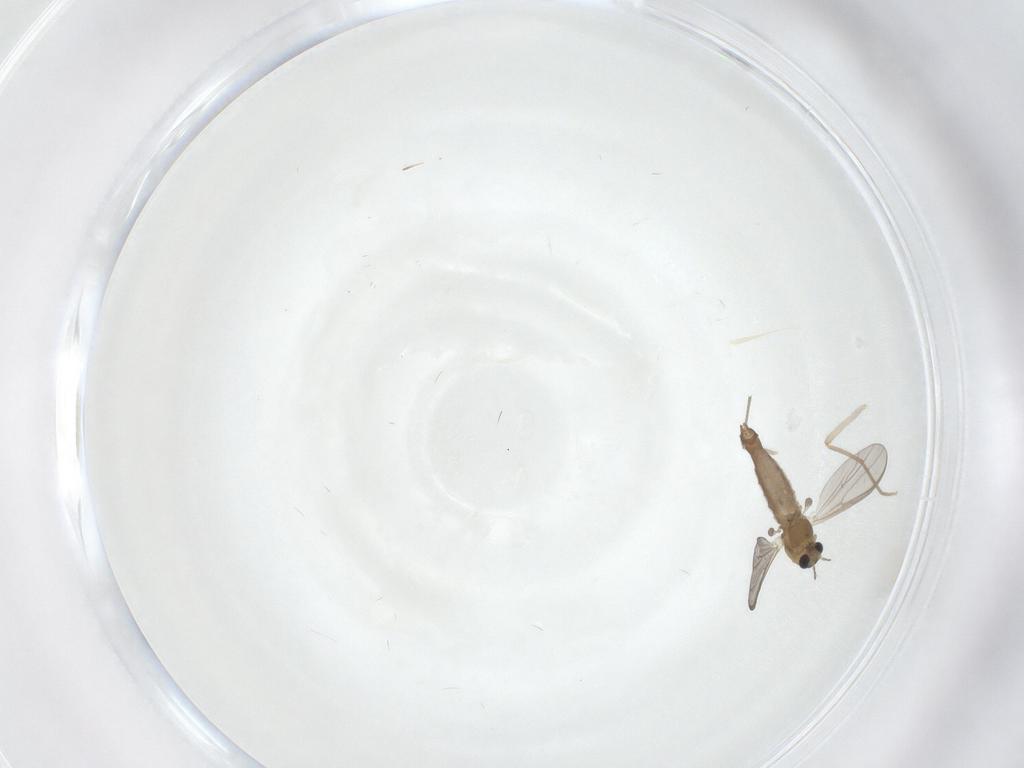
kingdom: Animalia
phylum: Arthropoda
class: Insecta
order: Diptera
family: Chironomidae
